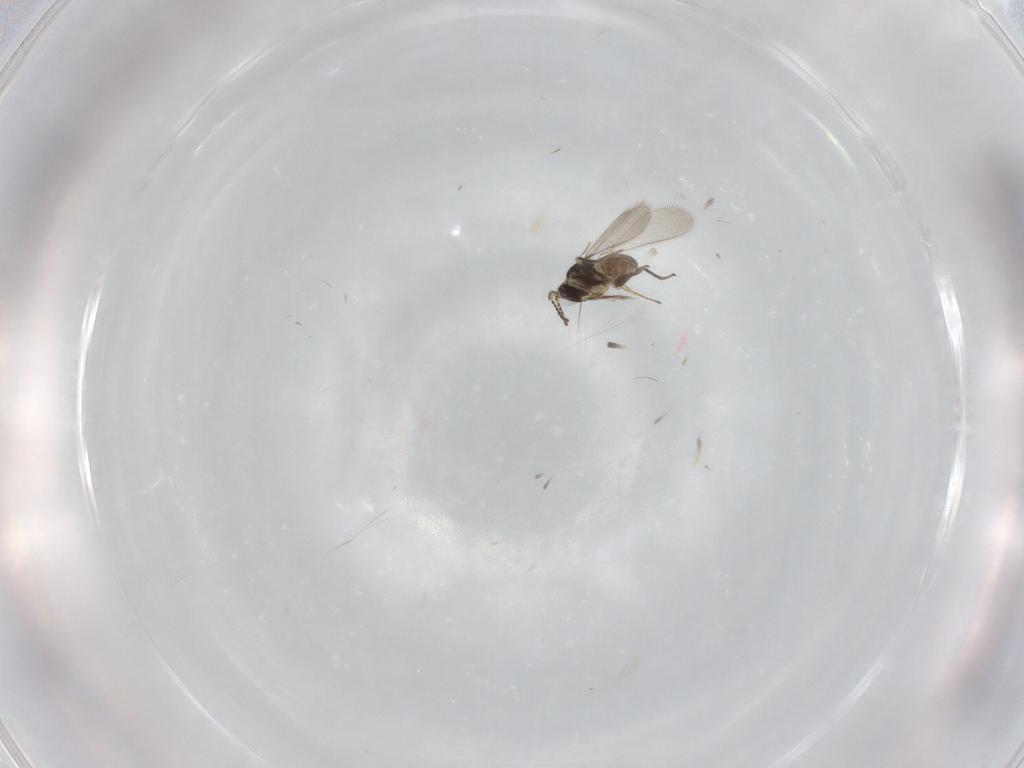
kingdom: Animalia
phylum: Arthropoda
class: Insecta
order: Hymenoptera
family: Mymaridae
